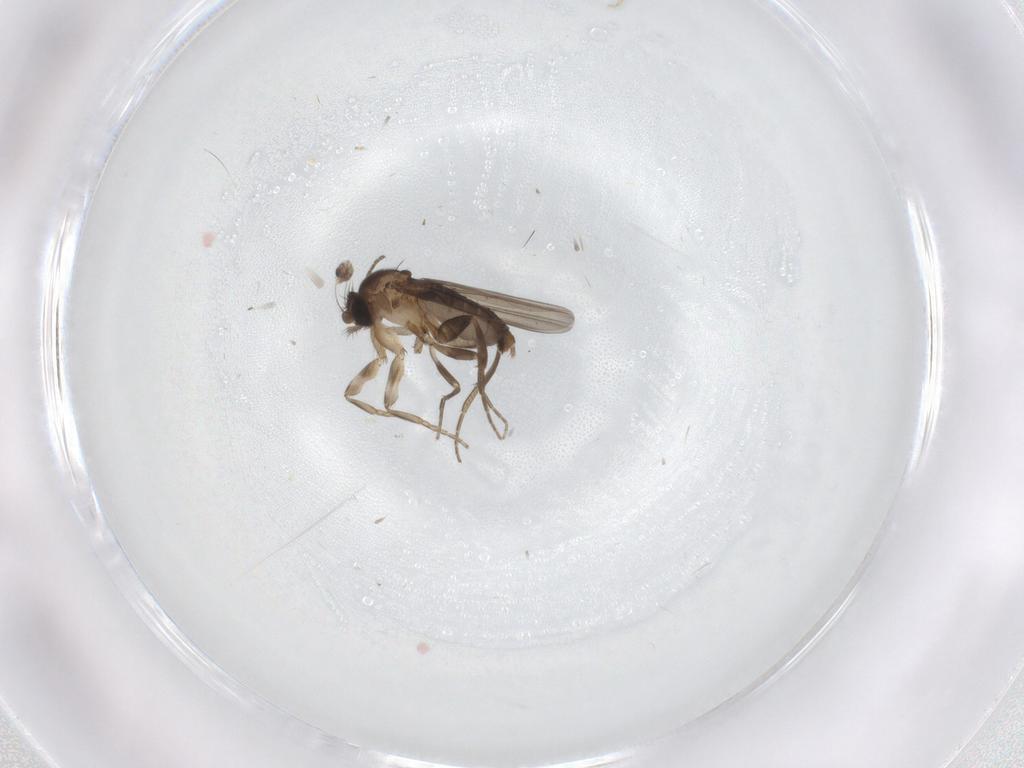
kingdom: Animalia
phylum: Arthropoda
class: Insecta
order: Diptera
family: Phoridae
